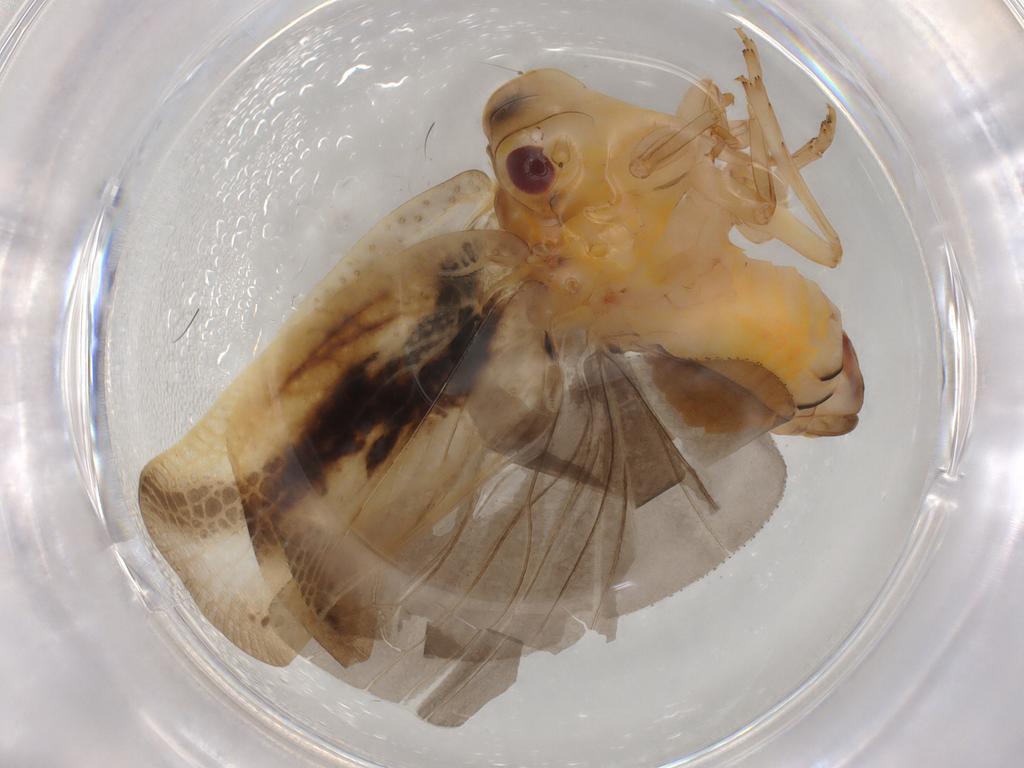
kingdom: Animalia
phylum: Arthropoda
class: Insecta
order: Hemiptera
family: Flatidae
